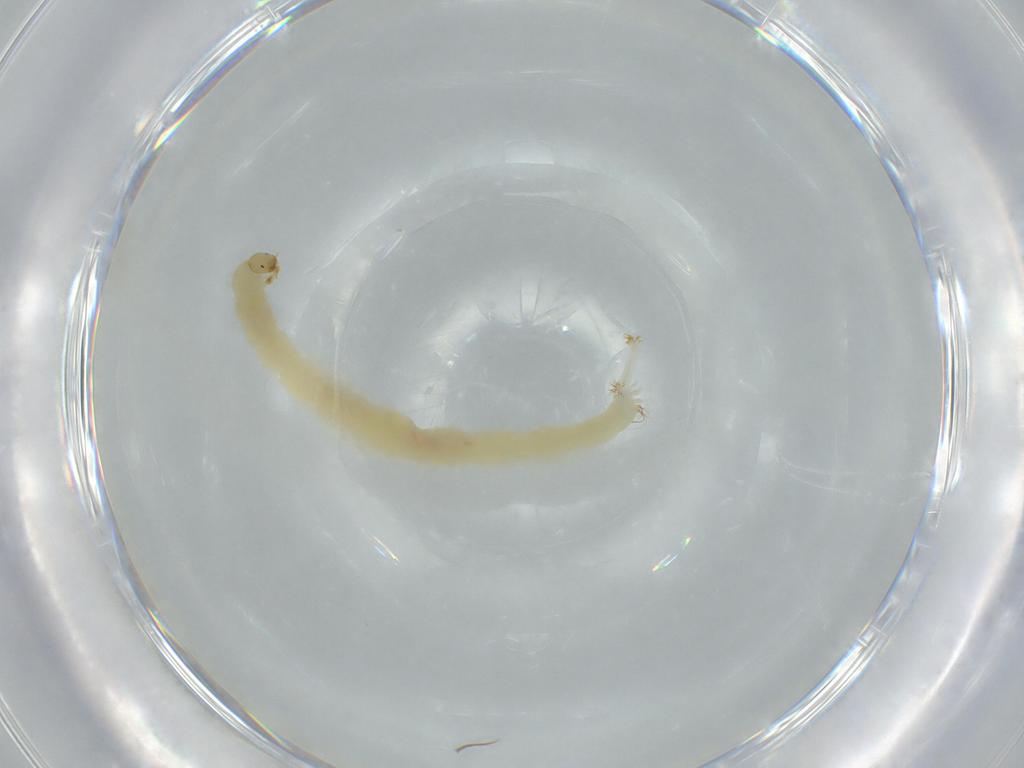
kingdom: Animalia
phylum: Arthropoda
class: Insecta
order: Diptera
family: Chironomidae
